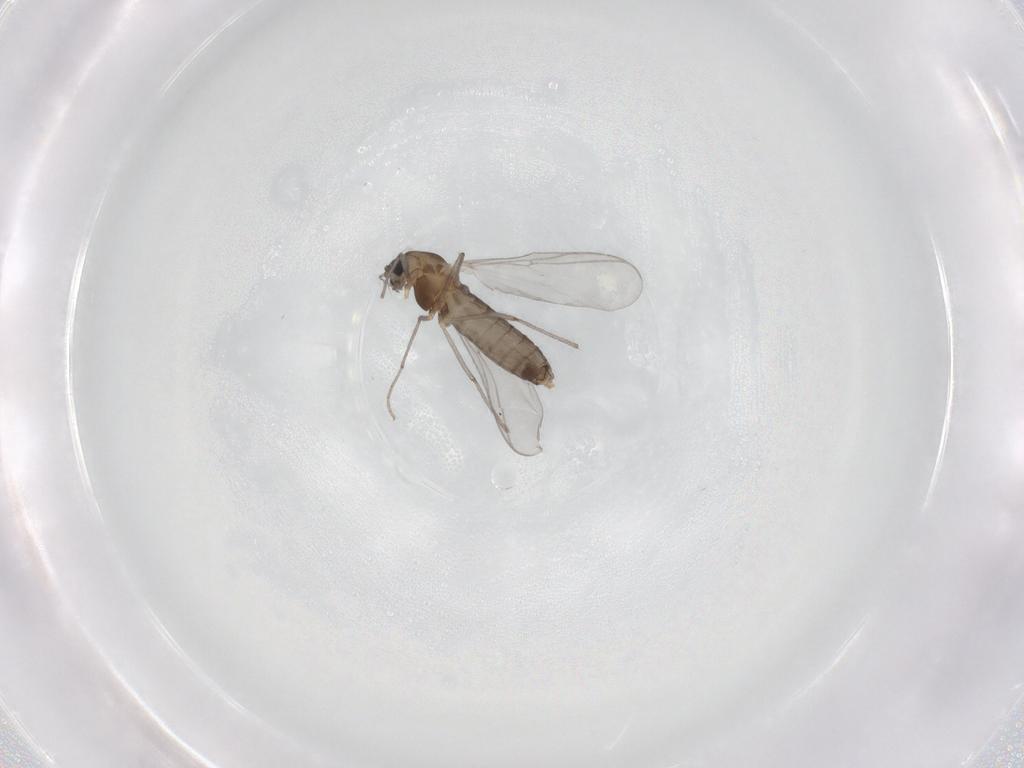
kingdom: Animalia
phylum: Arthropoda
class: Insecta
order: Diptera
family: Chironomidae
